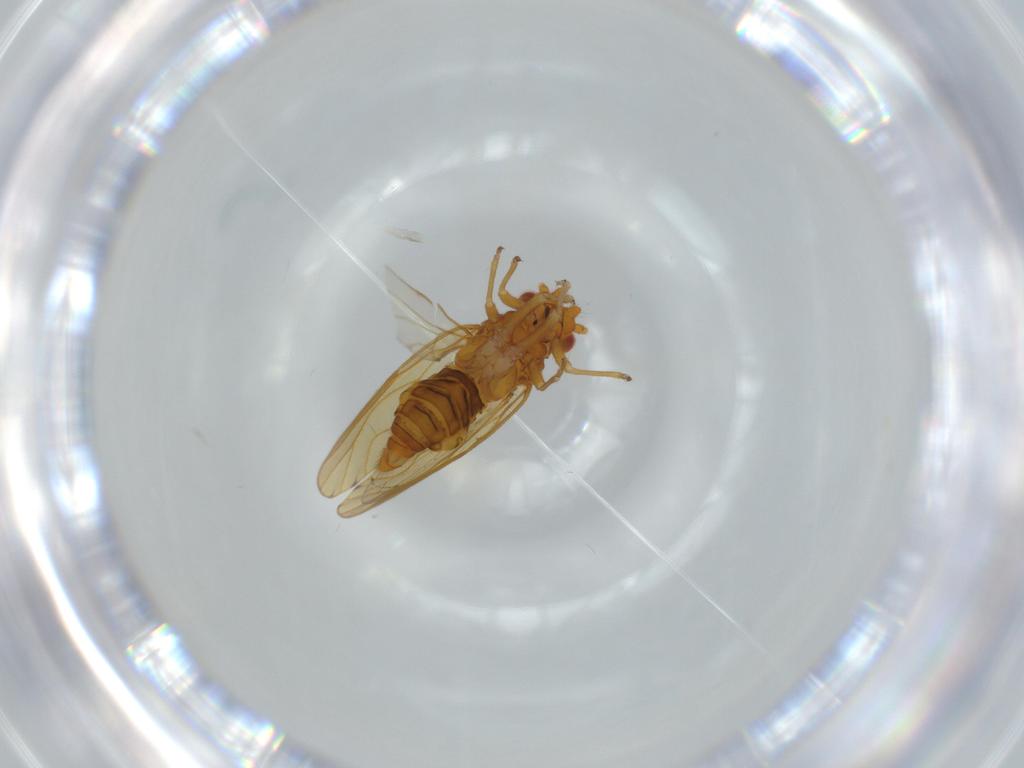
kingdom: Animalia
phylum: Arthropoda
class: Insecta
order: Hemiptera
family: Psylloidea_incertae_sedis
